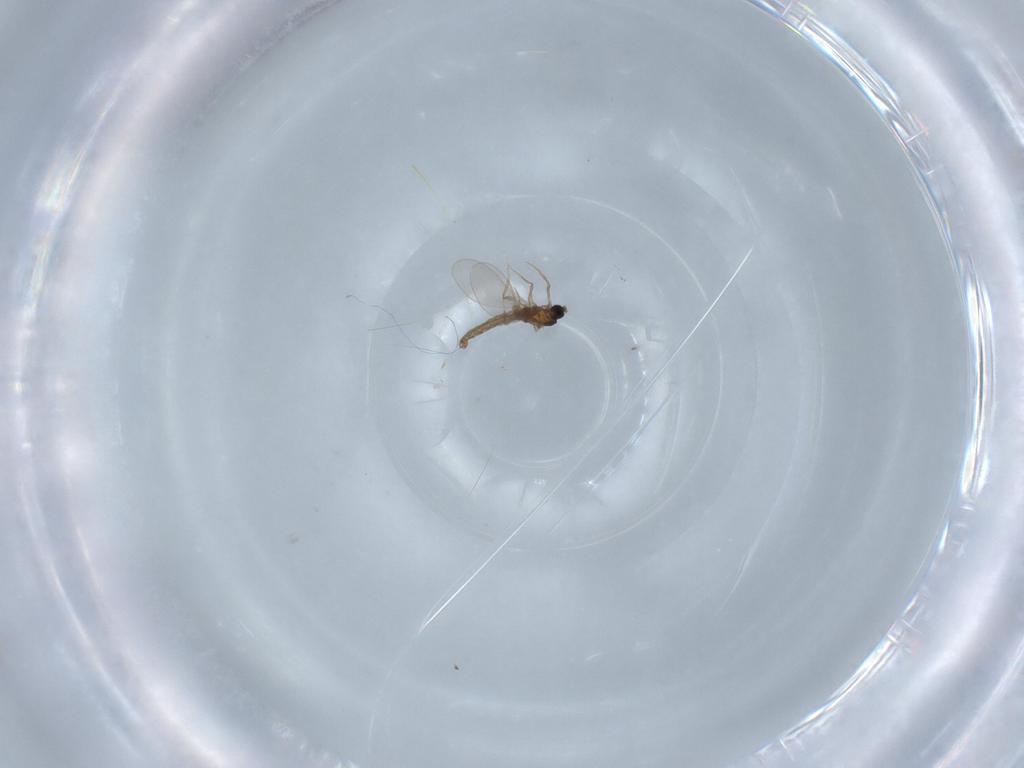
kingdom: Animalia
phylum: Arthropoda
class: Insecta
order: Diptera
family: Ceratopogonidae
